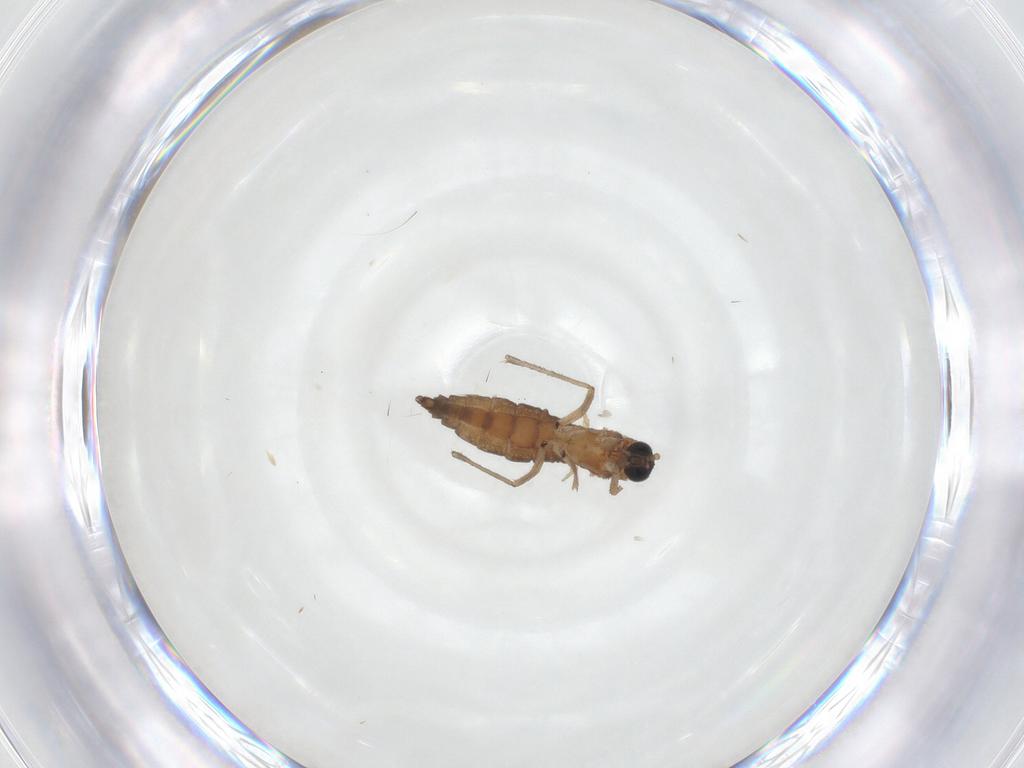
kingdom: Animalia
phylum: Arthropoda
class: Insecta
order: Diptera
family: Sciaridae
